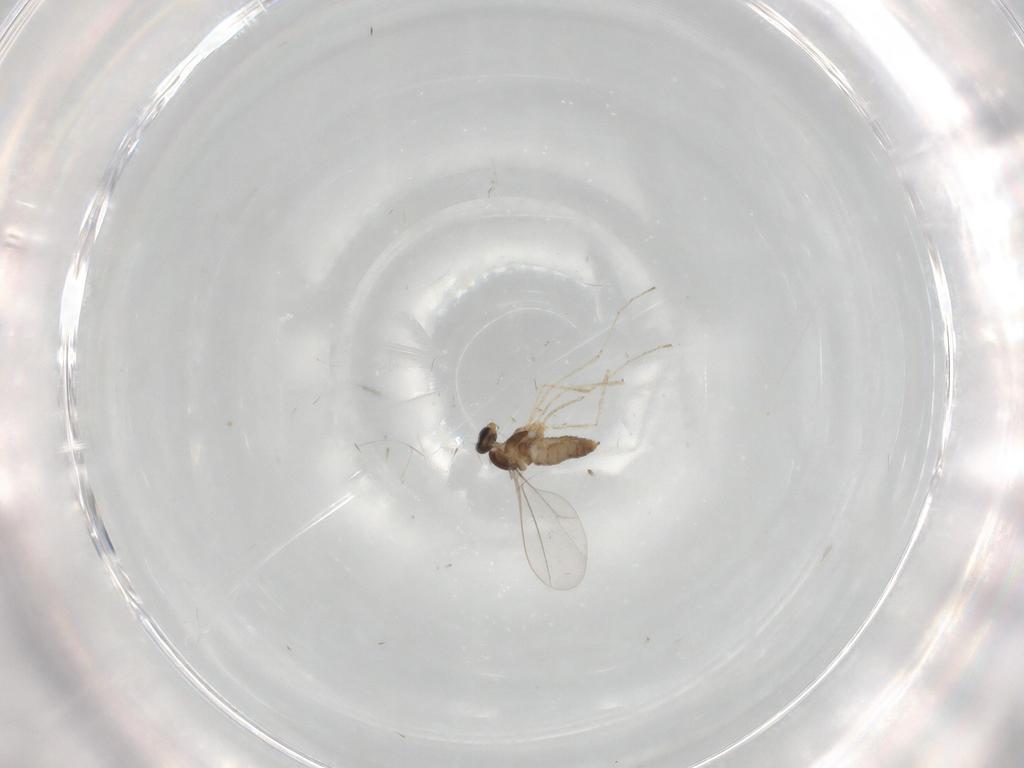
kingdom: Animalia
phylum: Arthropoda
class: Insecta
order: Diptera
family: Cecidomyiidae
